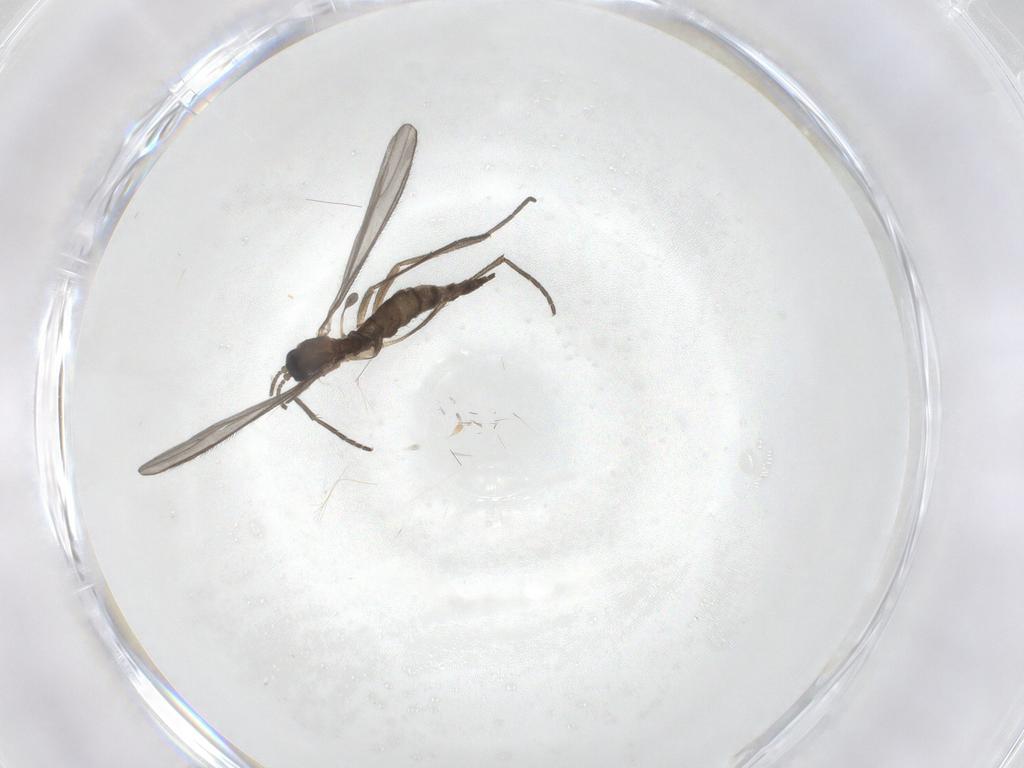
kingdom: Animalia
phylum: Arthropoda
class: Insecta
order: Diptera
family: Sciaridae
